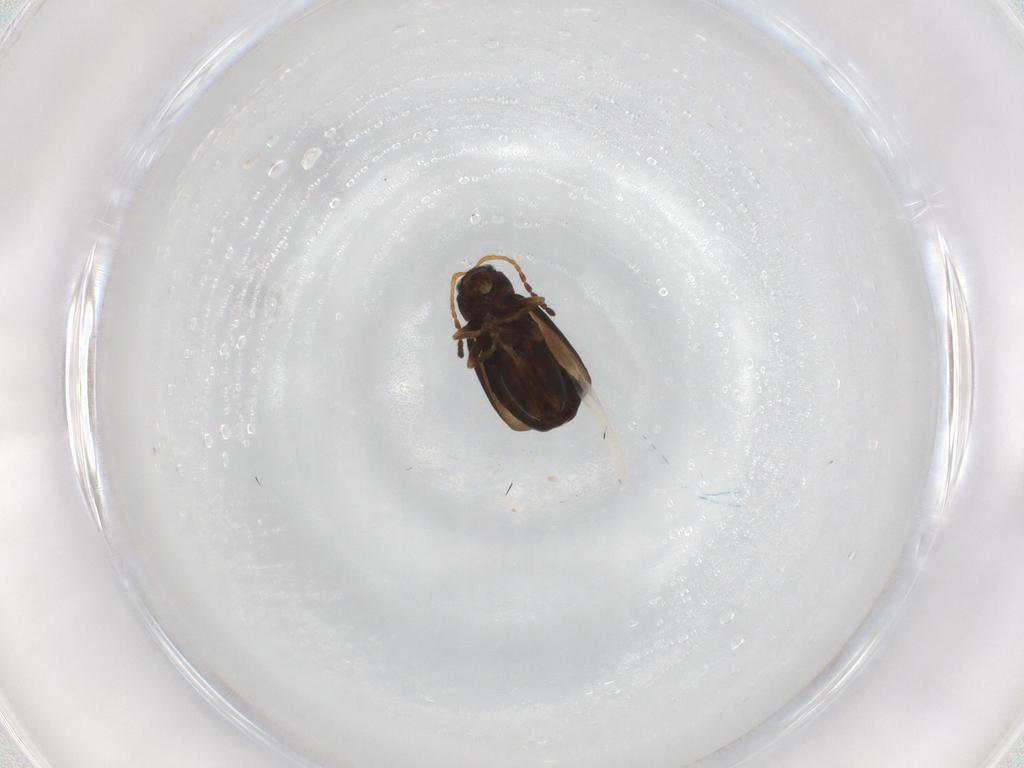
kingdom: Animalia
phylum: Arthropoda
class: Insecta
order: Coleoptera
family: Chrysomelidae
